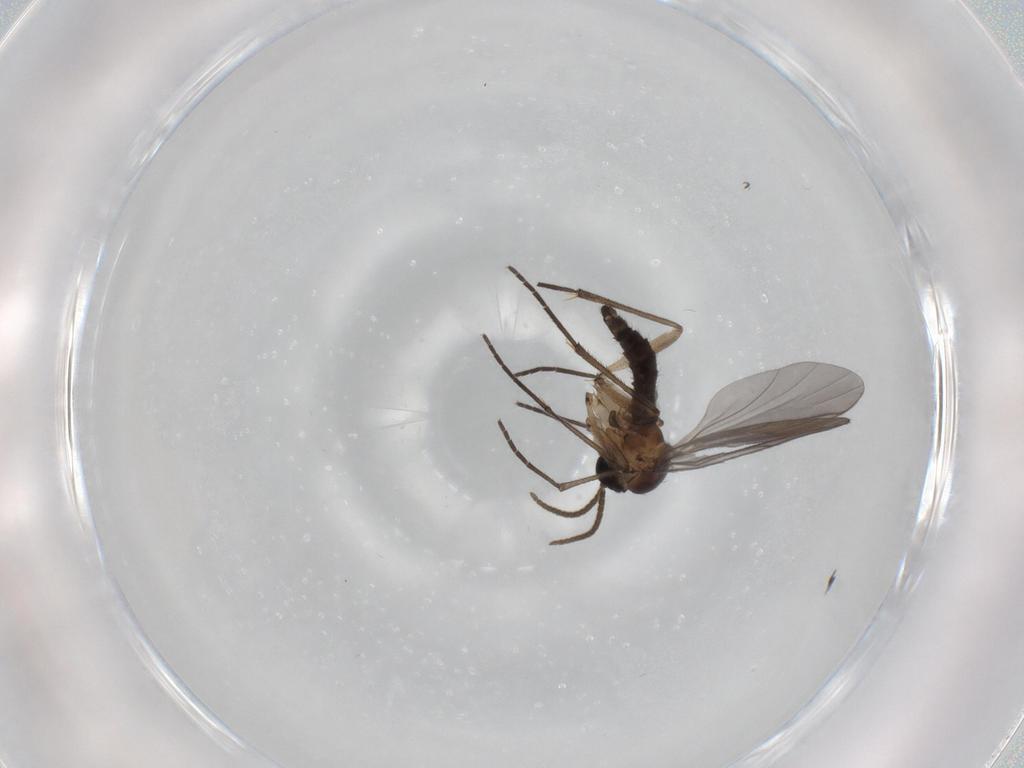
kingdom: Animalia
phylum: Arthropoda
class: Insecta
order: Diptera
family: Phoridae
